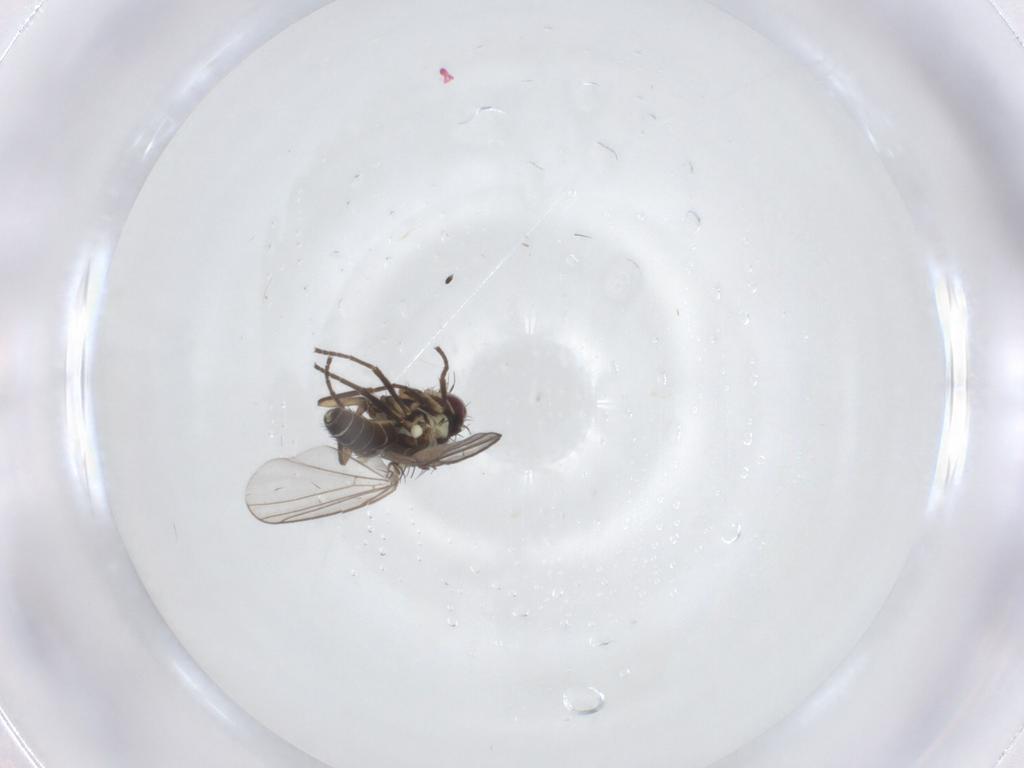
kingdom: Animalia
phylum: Arthropoda
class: Insecta
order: Diptera
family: Agromyzidae
